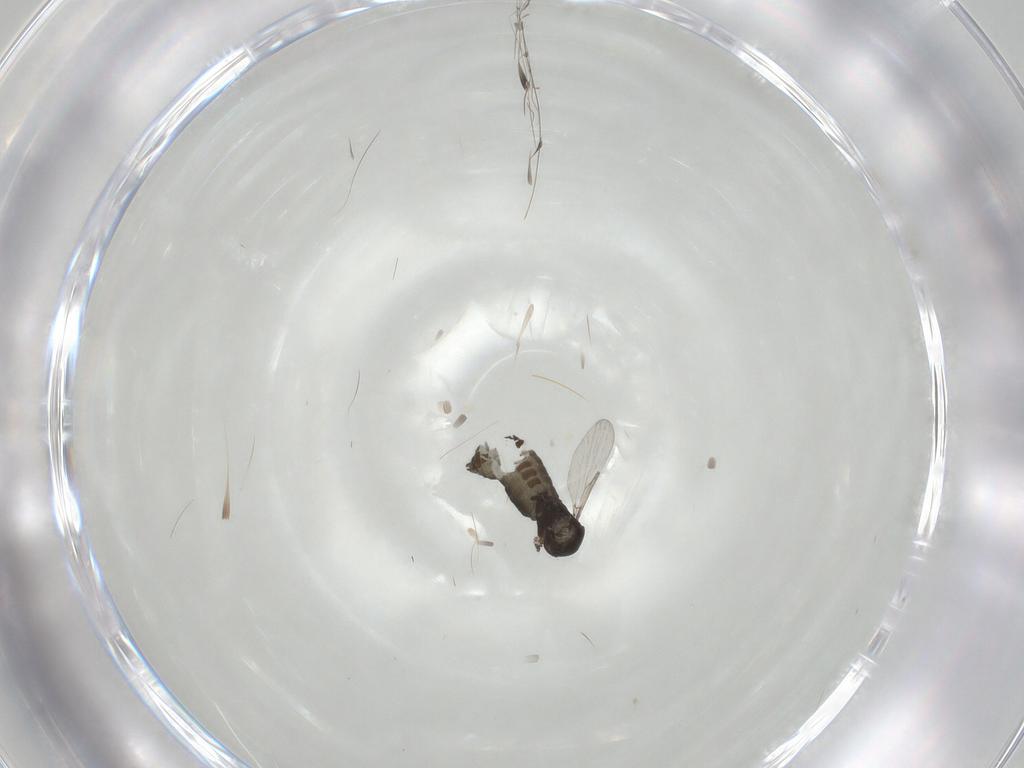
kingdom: Animalia
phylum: Arthropoda
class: Insecta
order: Diptera
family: Ceratopogonidae
